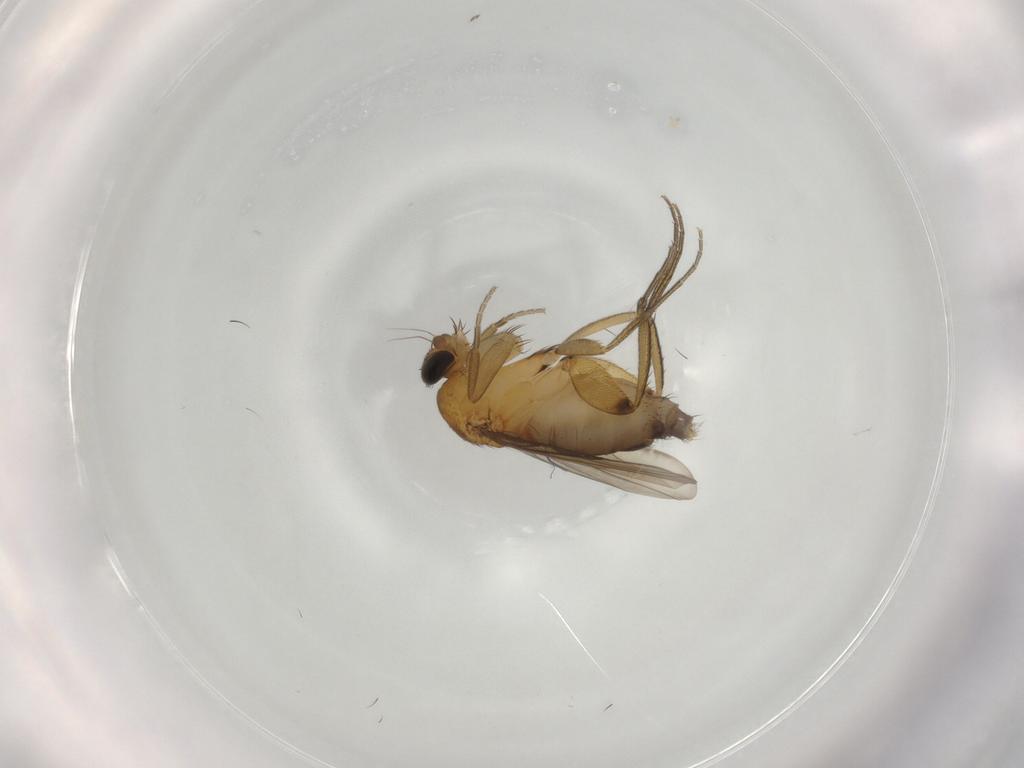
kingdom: Animalia
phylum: Arthropoda
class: Insecta
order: Diptera
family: Phoridae
